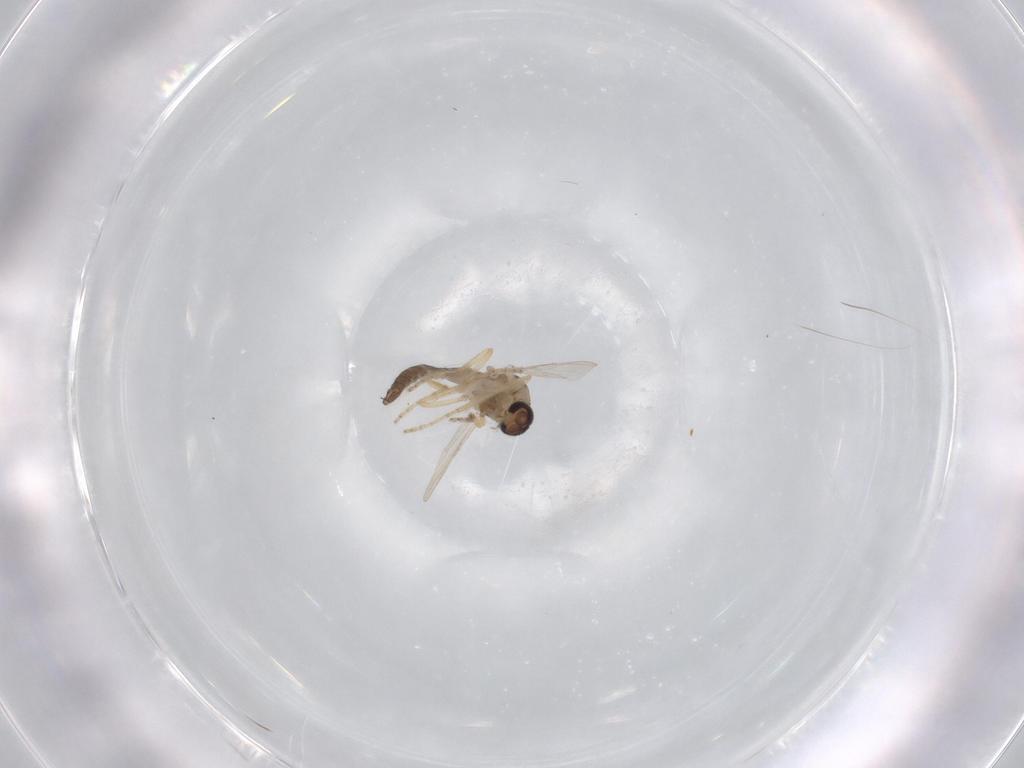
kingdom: Animalia
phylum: Arthropoda
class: Insecta
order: Diptera
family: Ceratopogonidae
